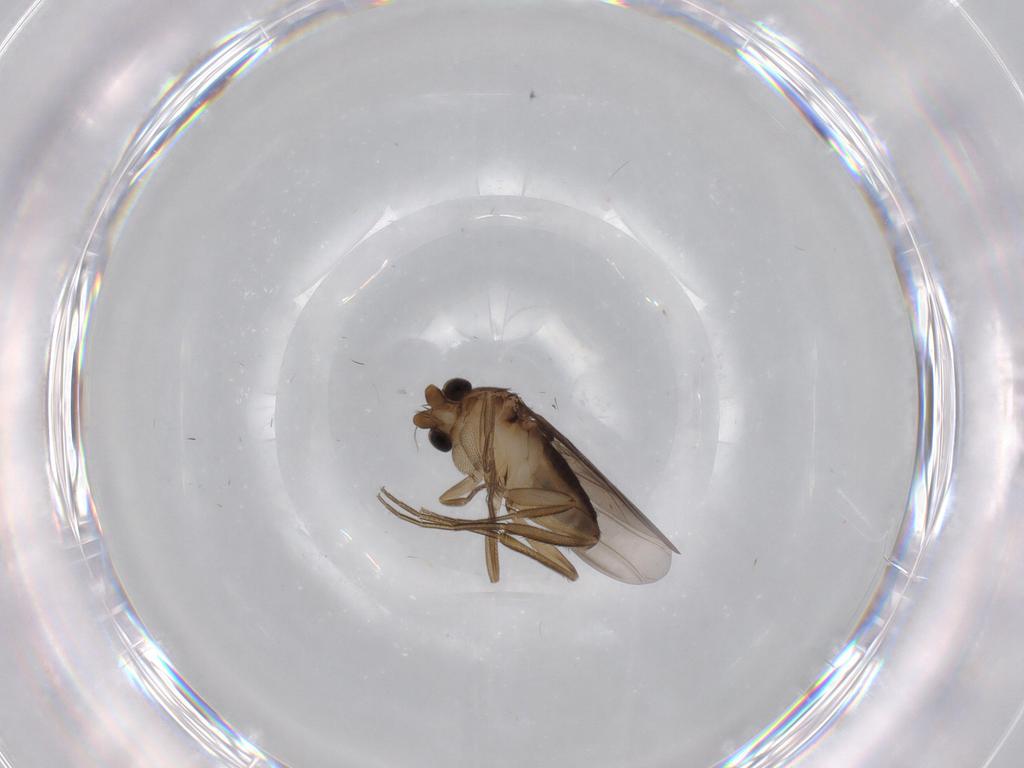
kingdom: Animalia
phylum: Arthropoda
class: Insecta
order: Diptera
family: Phoridae
